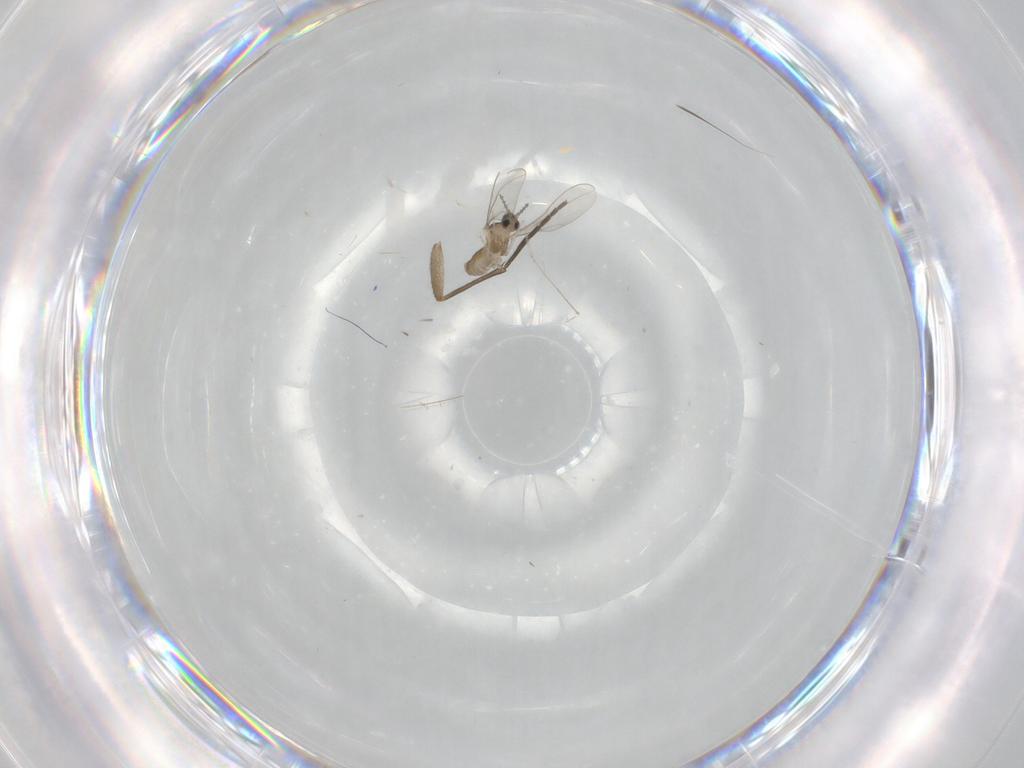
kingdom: Animalia
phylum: Arthropoda
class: Insecta
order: Diptera
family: Cecidomyiidae
